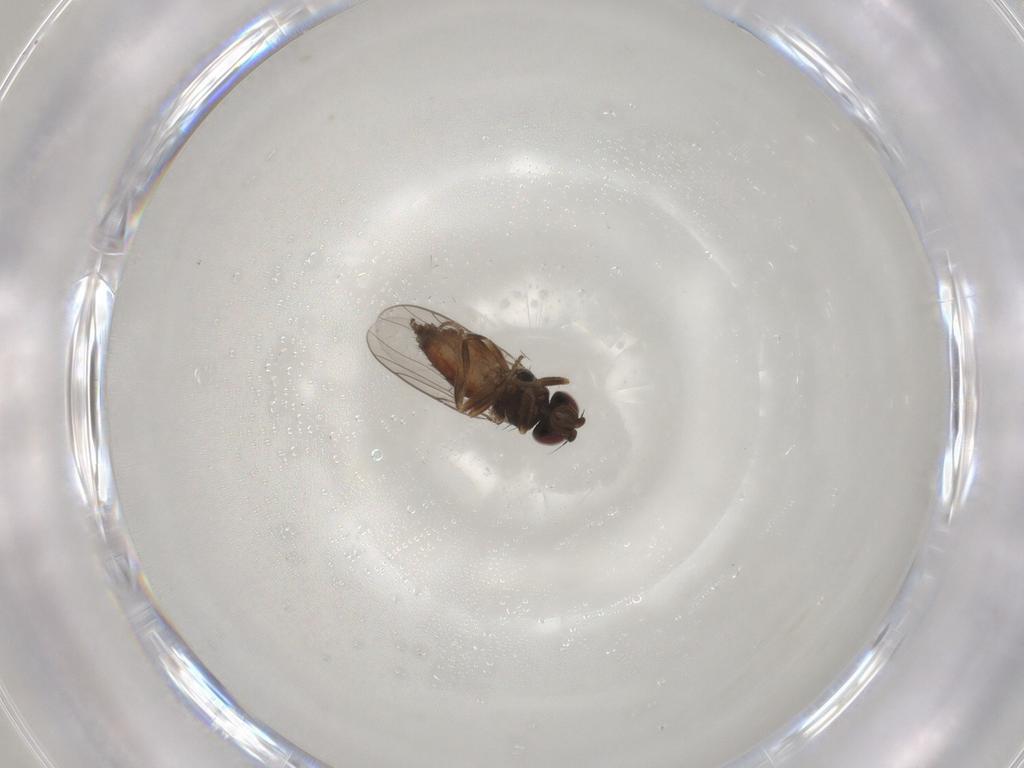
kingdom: Animalia
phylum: Arthropoda
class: Insecta
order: Diptera
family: Chloropidae
